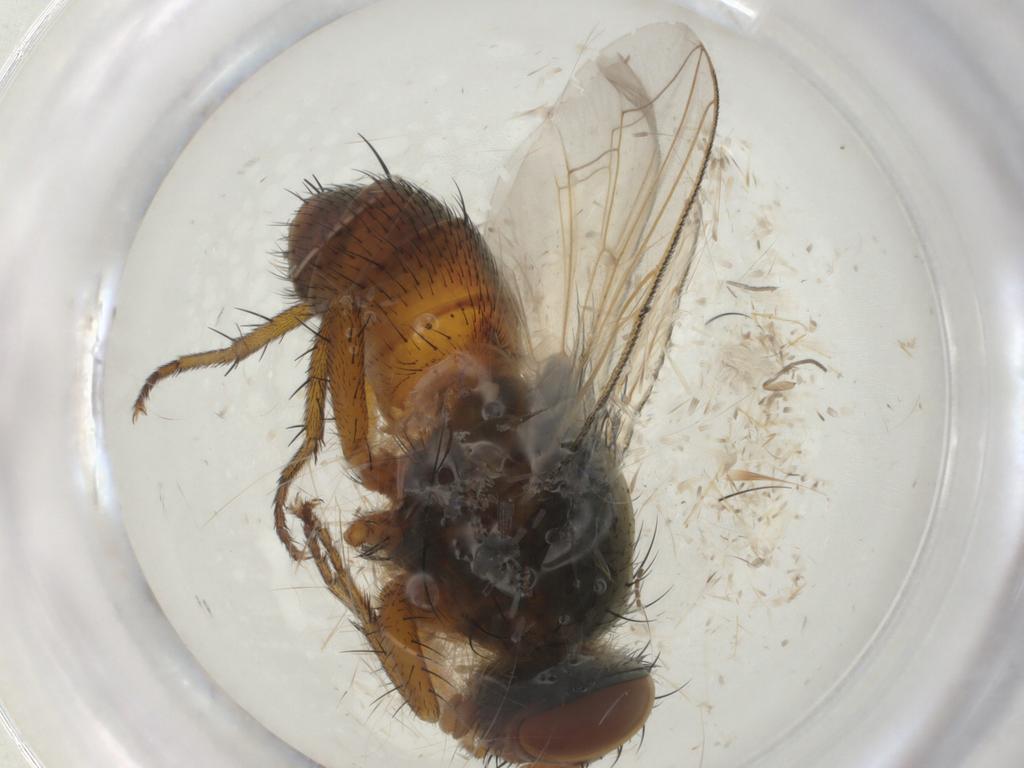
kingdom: Animalia
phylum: Arthropoda
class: Insecta
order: Diptera
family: Sarcophagidae
